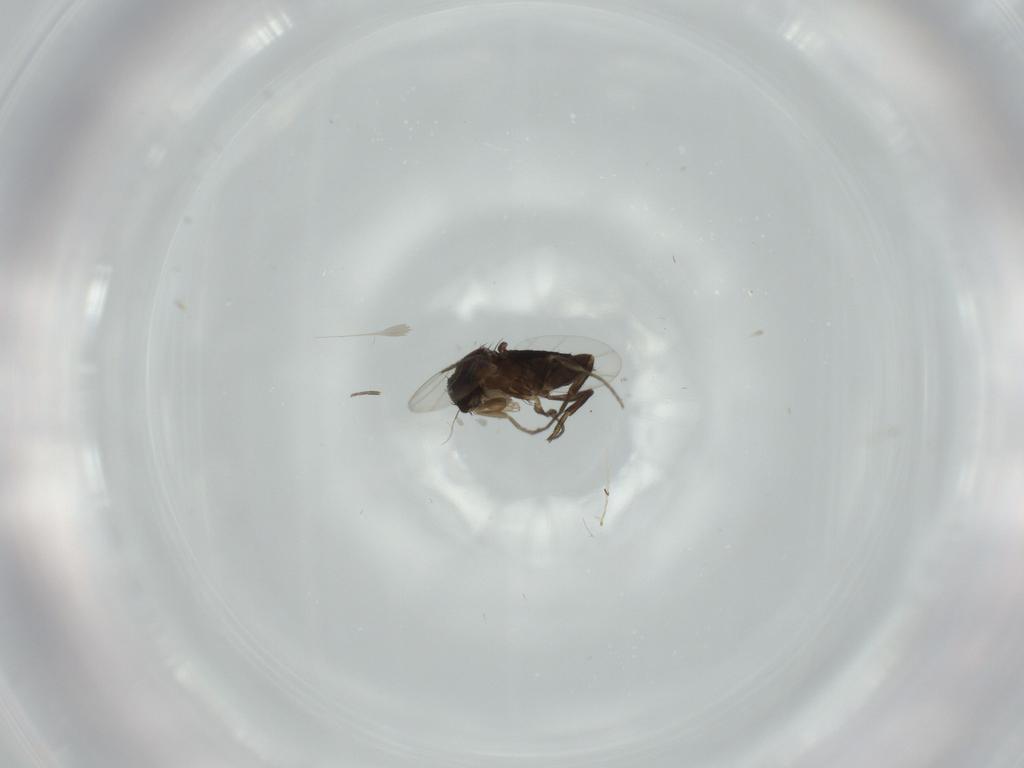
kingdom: Animalia
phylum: Arthropoda
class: Insecta
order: Diptera
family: Phoridae
